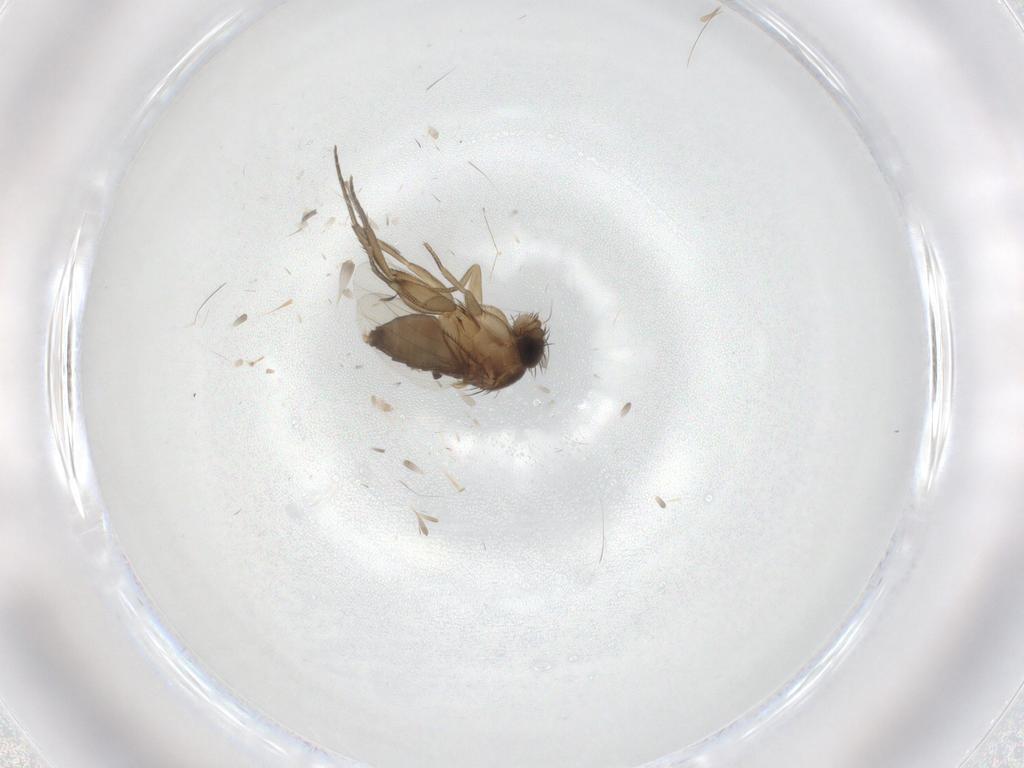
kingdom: Animalia
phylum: Arthropoda
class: Insecta
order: Diptera
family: Phoridae
